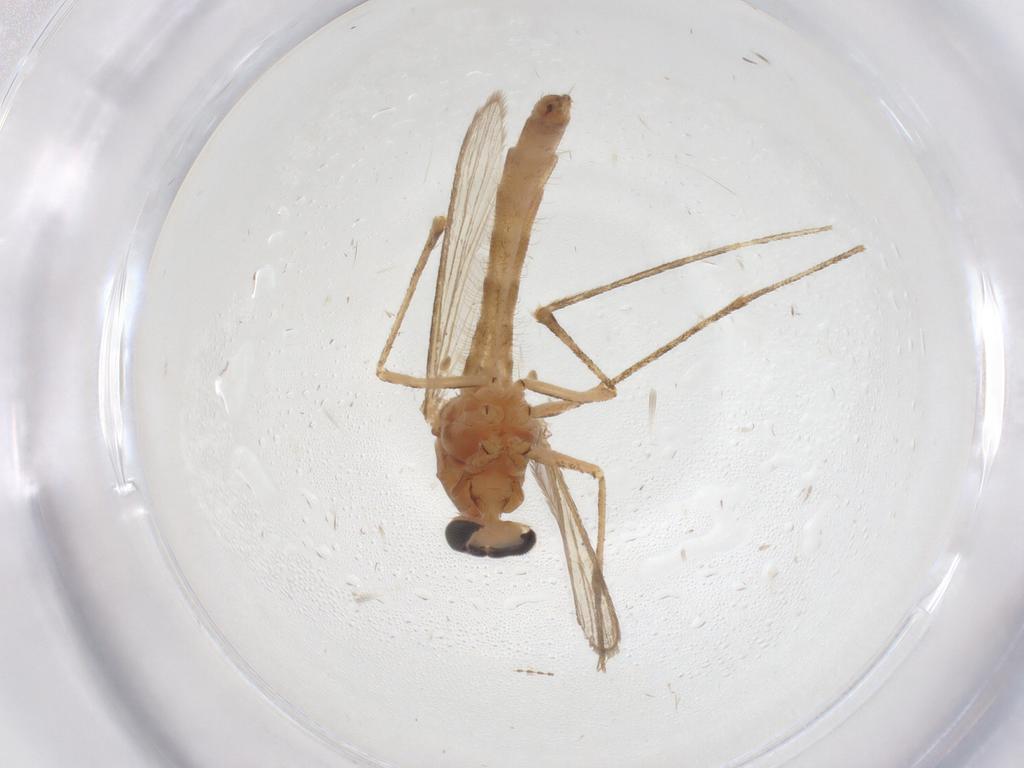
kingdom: Animalia
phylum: Arthropoda
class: Insecta
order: Diptera
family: Culicidae
